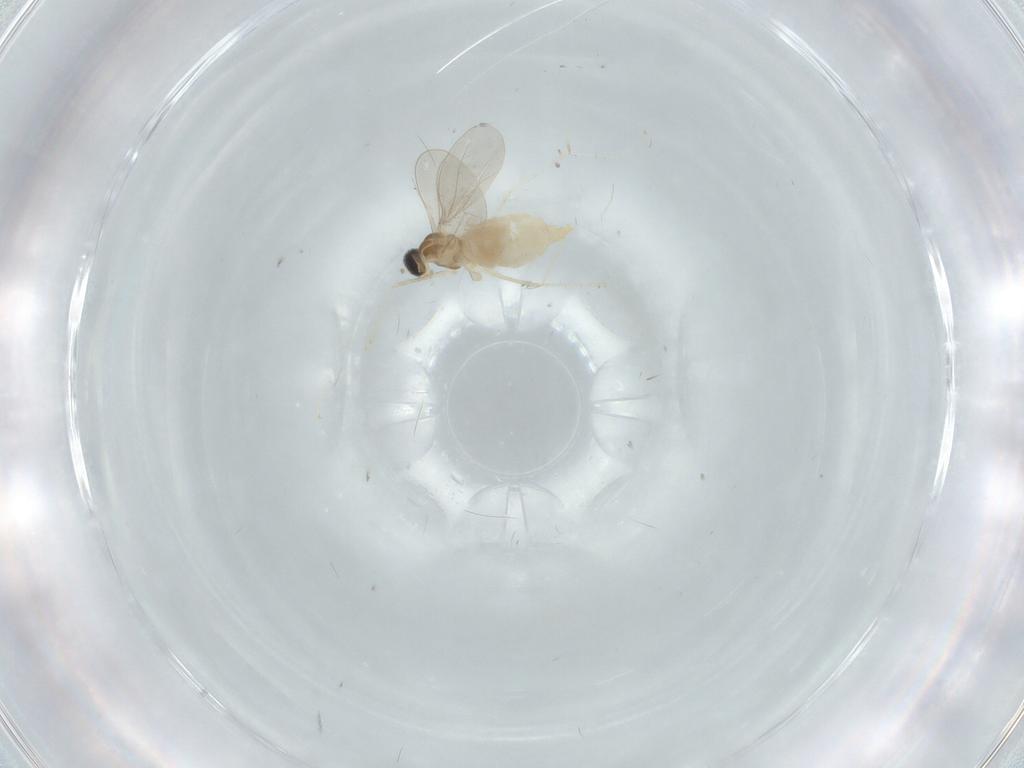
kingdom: Animalia
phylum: Arthropoda
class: Insecta
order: Diptera
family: Cecidomyiidae
